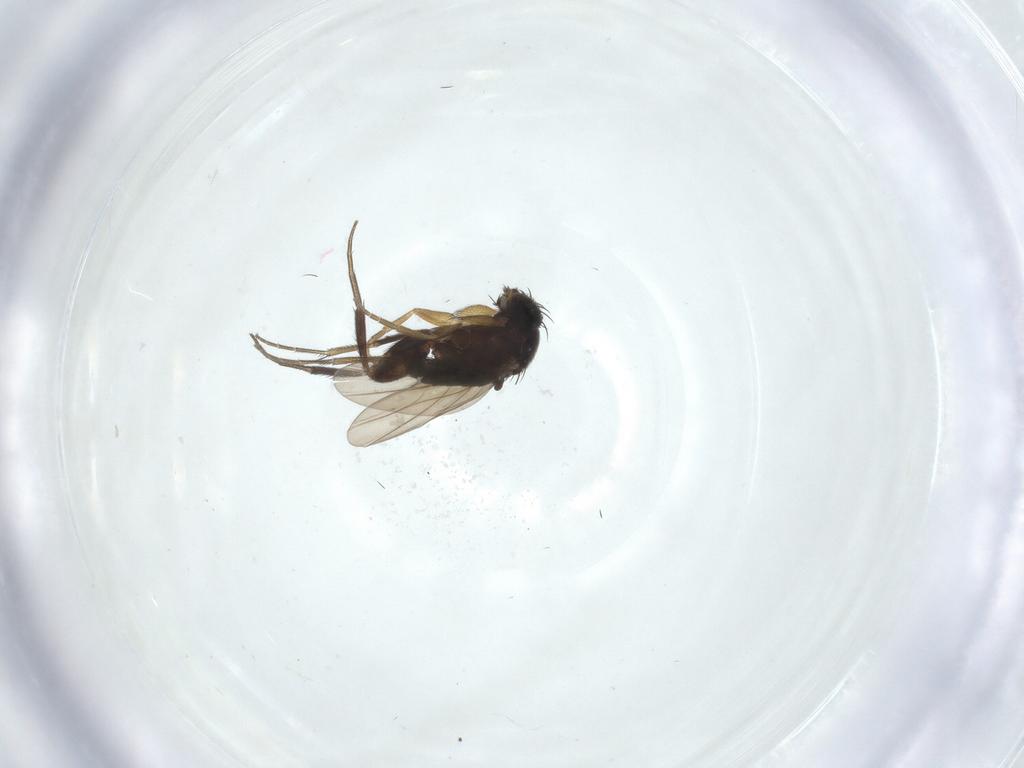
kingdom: Animalia
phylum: Arthropoda
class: Insecta
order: Diptera
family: Phoridae
